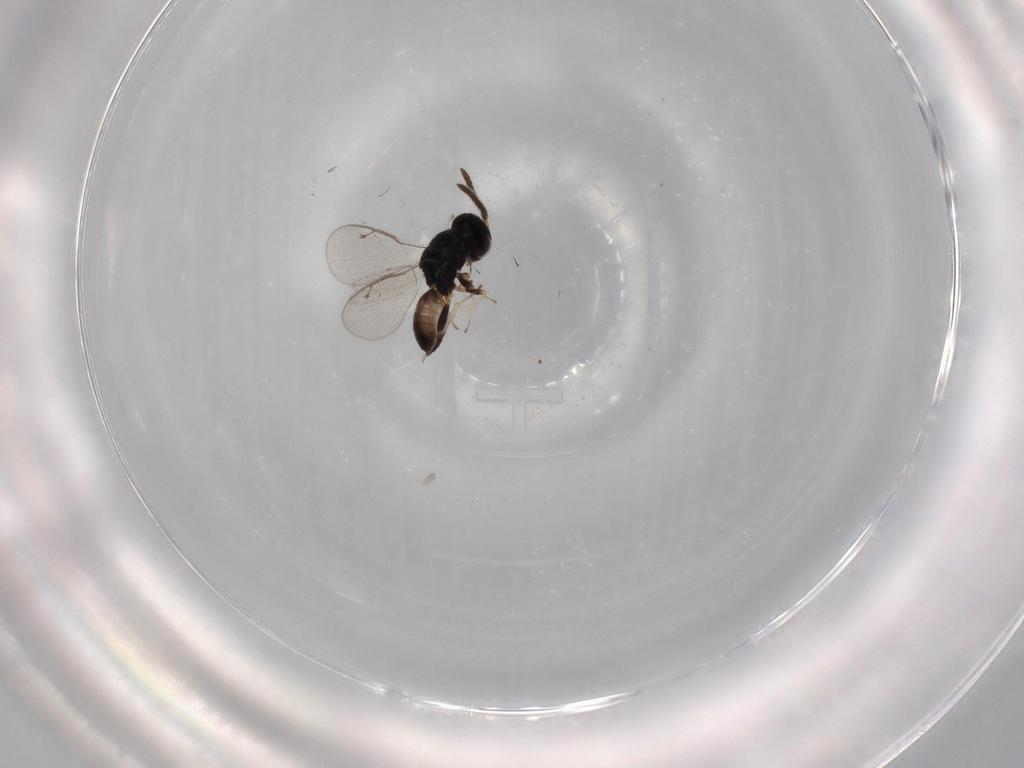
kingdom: Animalia
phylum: Arthropoda
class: Insecta
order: Hymenoptera
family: Pteromalidae
